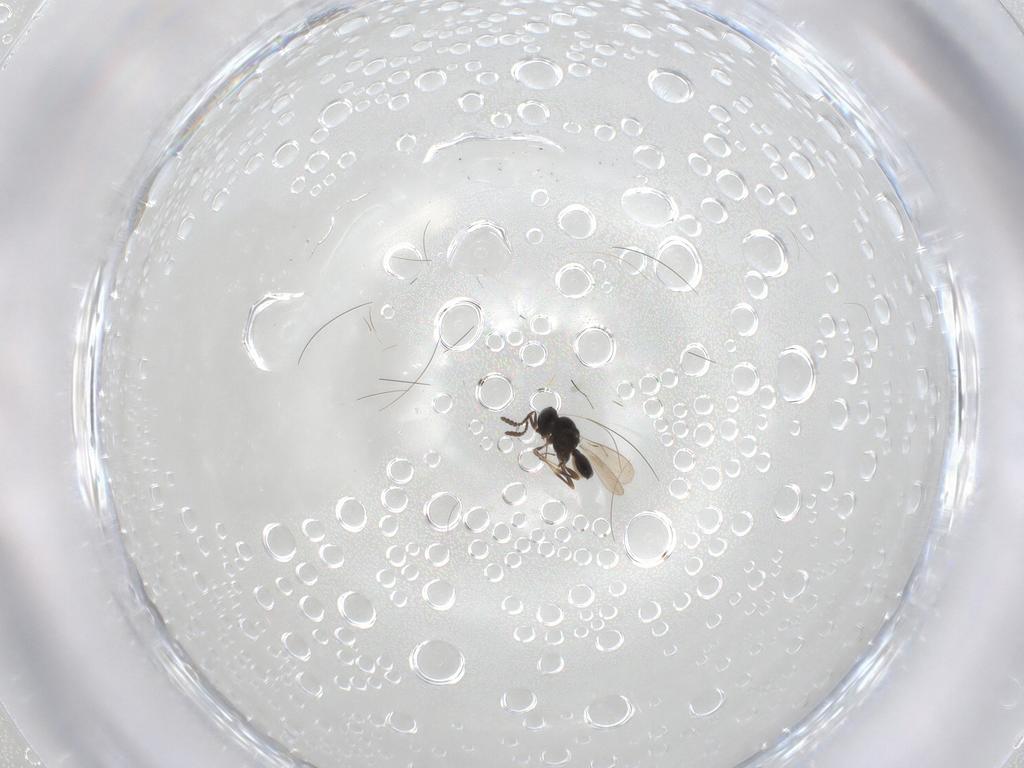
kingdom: Animalia
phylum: Arthropoda
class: Insecta
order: Hymenoptera
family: Scelionidae
